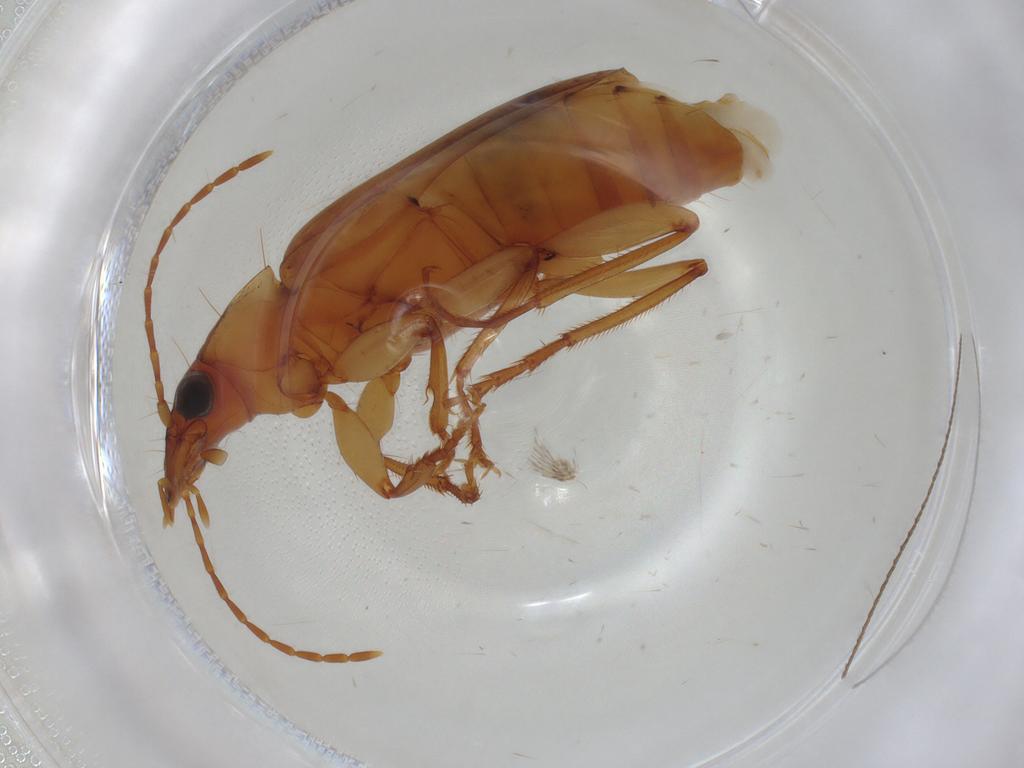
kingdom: Animalia
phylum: Arthropoda
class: Insecta
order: Coleoptera
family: Carabidae
